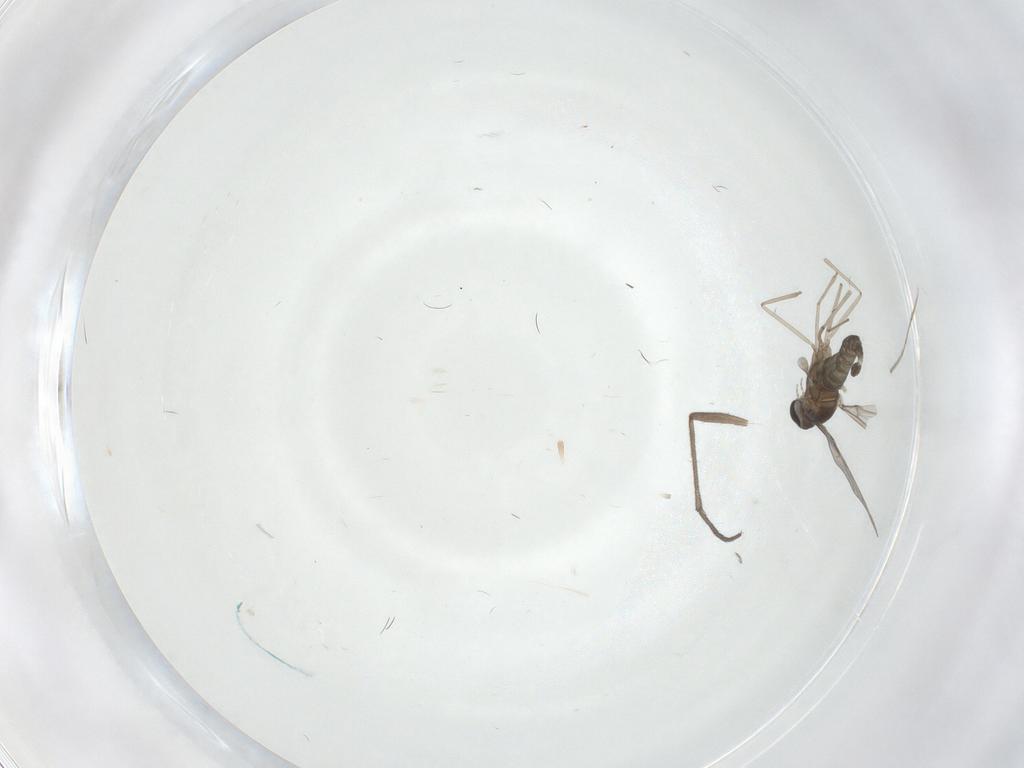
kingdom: Animalia
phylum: Arthropoda
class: Insecta
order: Diptera
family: Cecidomyiidae
